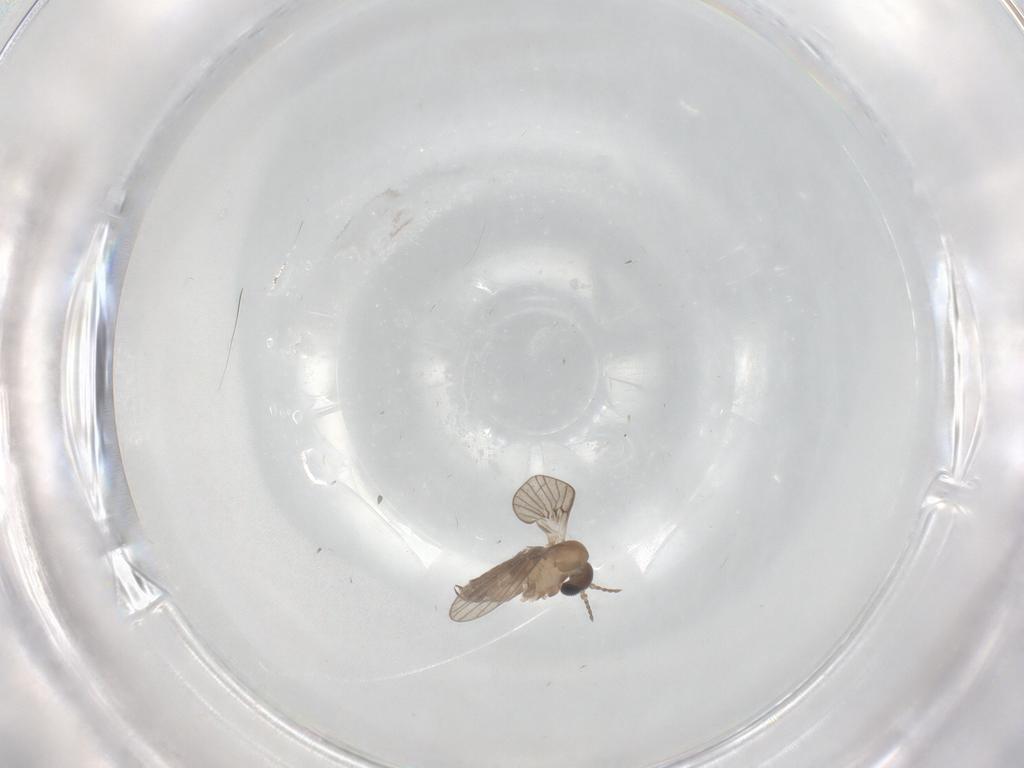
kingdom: Animalia
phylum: Arthropoda
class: Insecta
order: Diptera
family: Psychodidae
